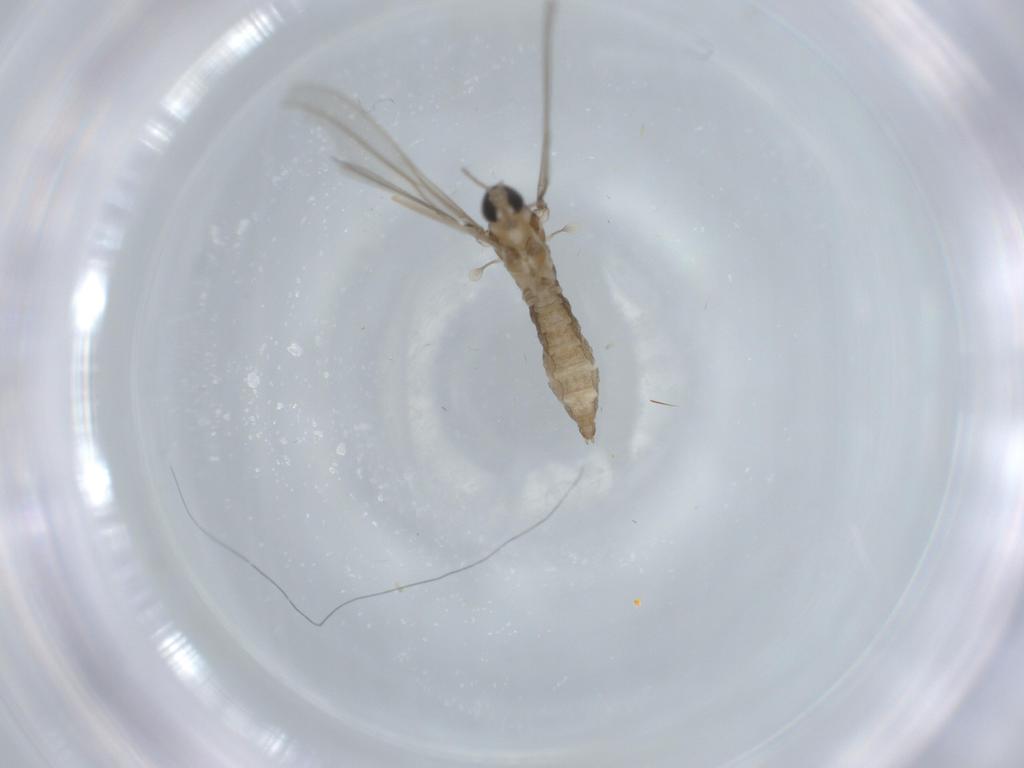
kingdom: Animalia
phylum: Arthropoda
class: Insecta
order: Diptera
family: Cecidomyiidae
